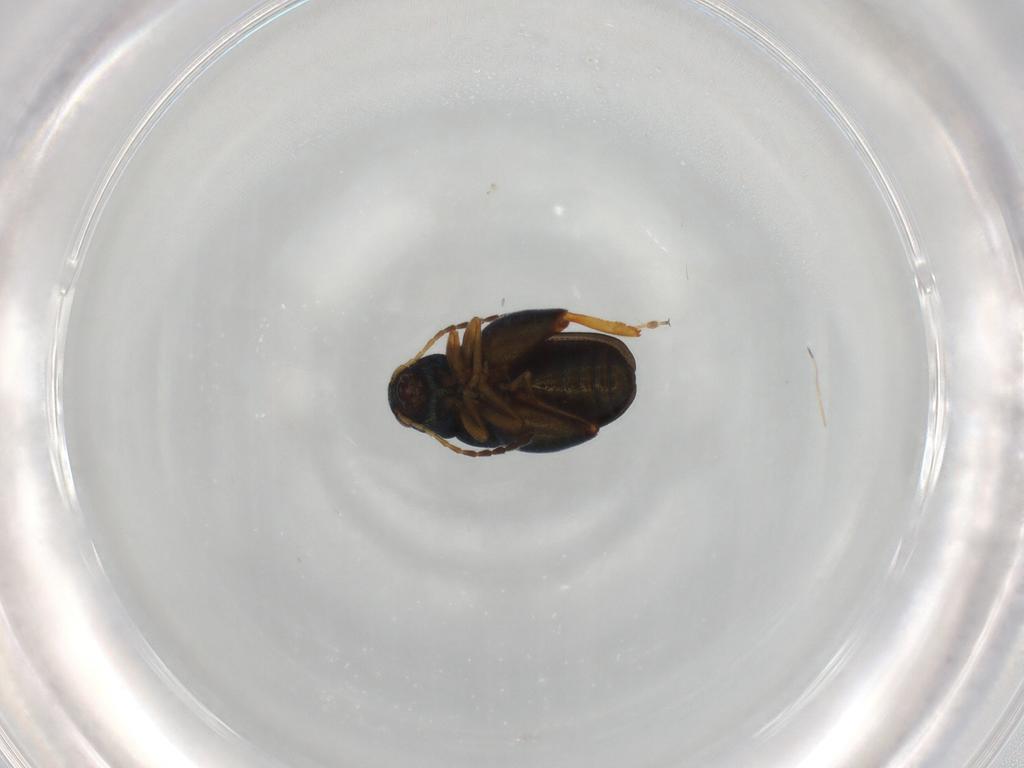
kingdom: Animalia
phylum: Arthropoda
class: Insecta
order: Coleoptera
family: Chrysomelidae
